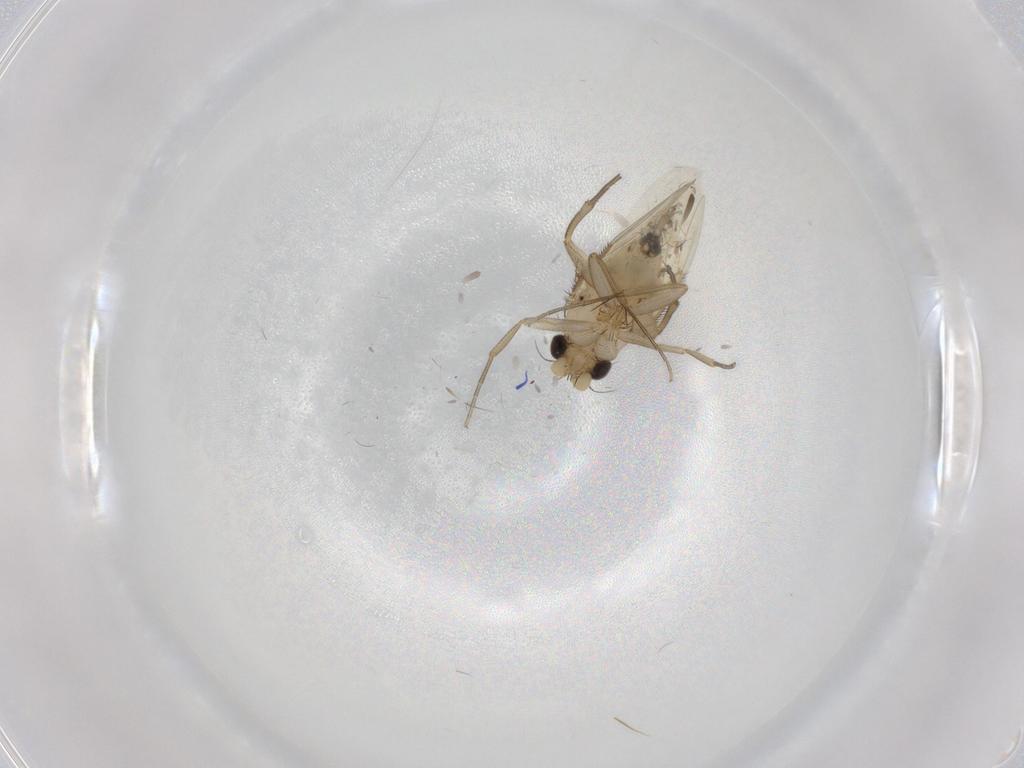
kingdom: Animalia
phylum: Arthropoda
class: Insecta
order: Diptera
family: Phoridae
